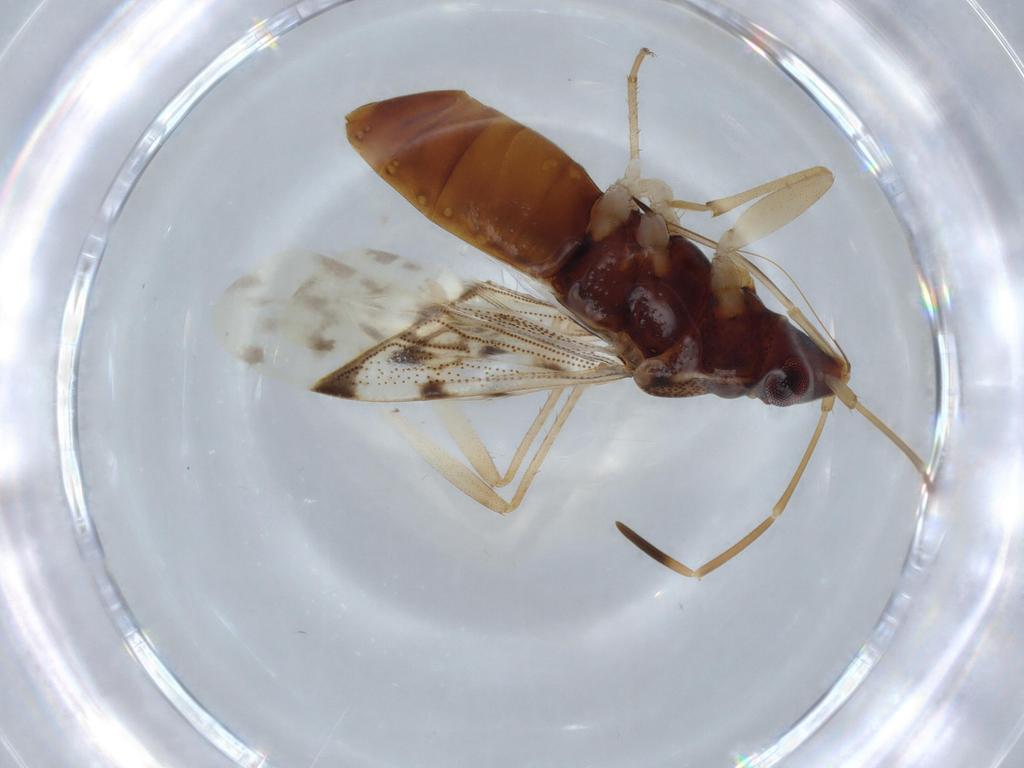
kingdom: Animalia
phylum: Arthropoda
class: Insecta
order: Hemiptera
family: Rhyparochromidae
